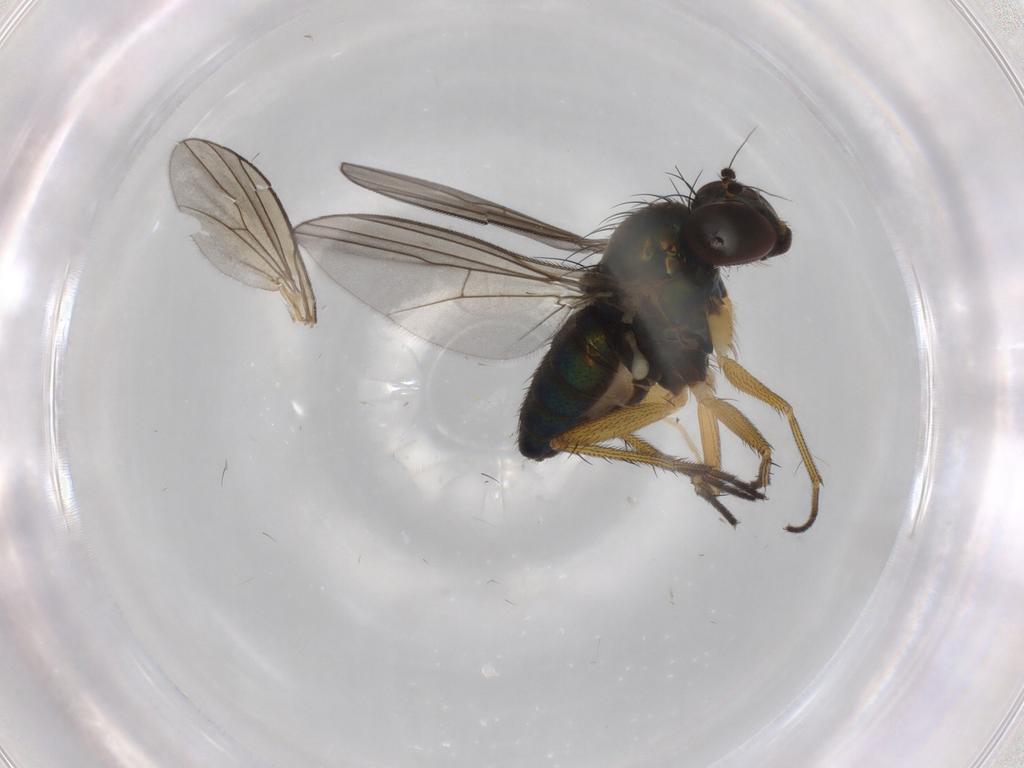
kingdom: Animalia
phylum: Arthropoda
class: Insecta
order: Diptera
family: Dolichopodidae
